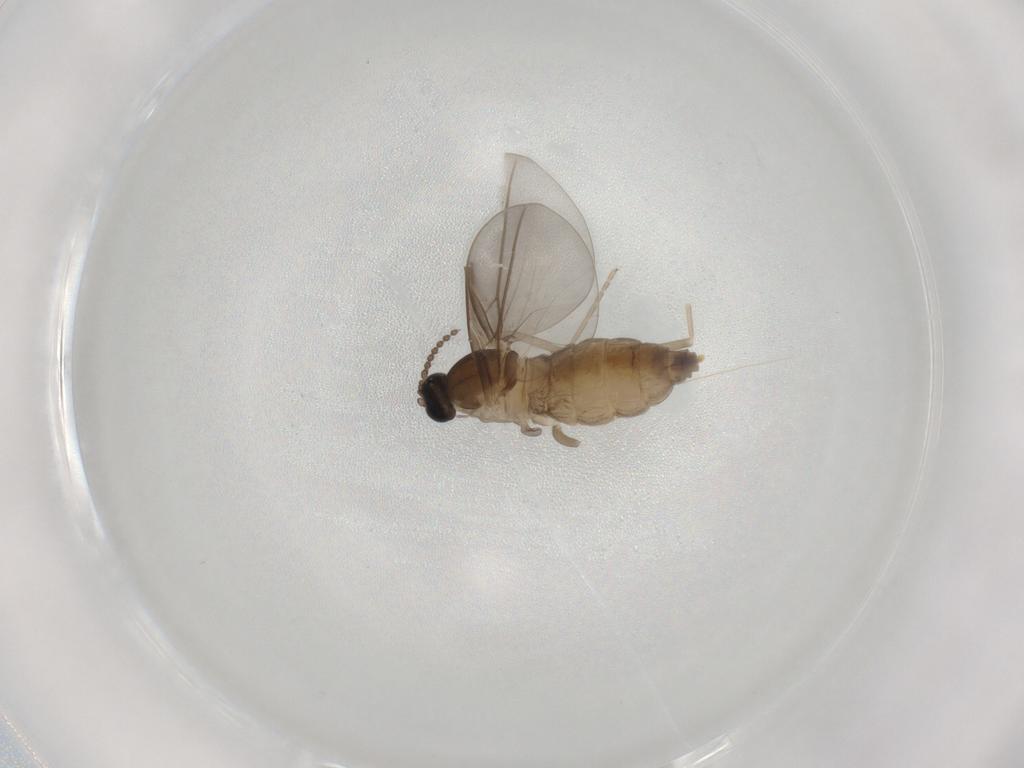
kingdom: Animalia
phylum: Arthropoda
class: Insecta
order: Diptera
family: Cecidomyiidae
